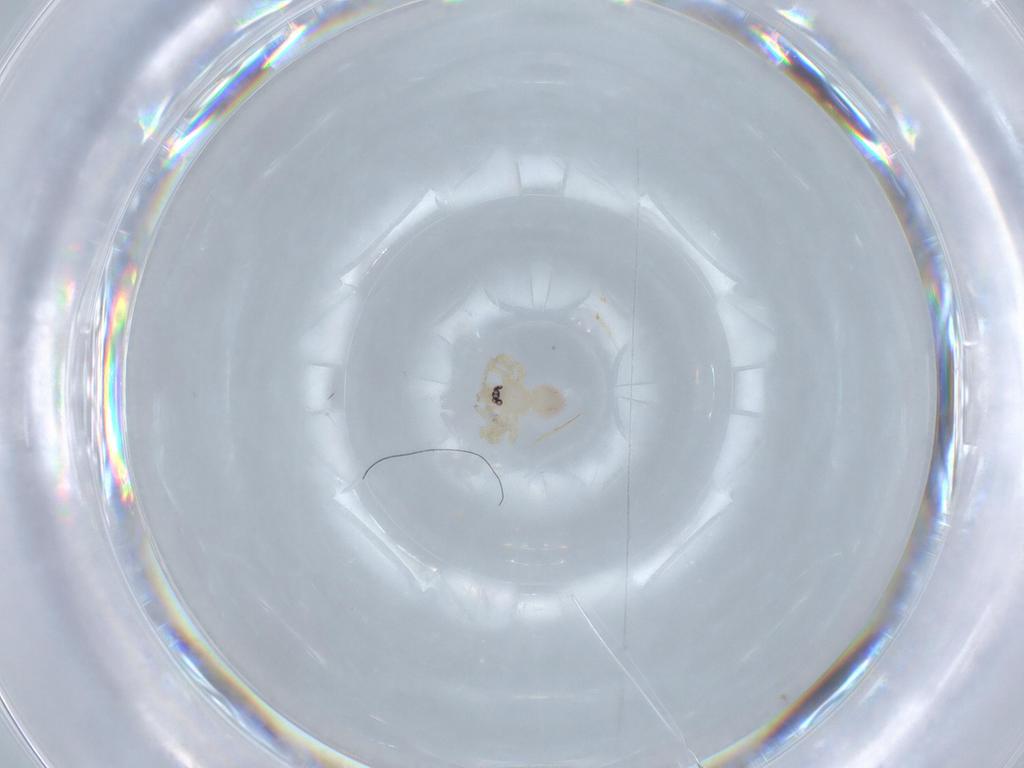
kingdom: Animalia
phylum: Arthropoda
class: Arachnida
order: Araneae
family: Oonopidae
